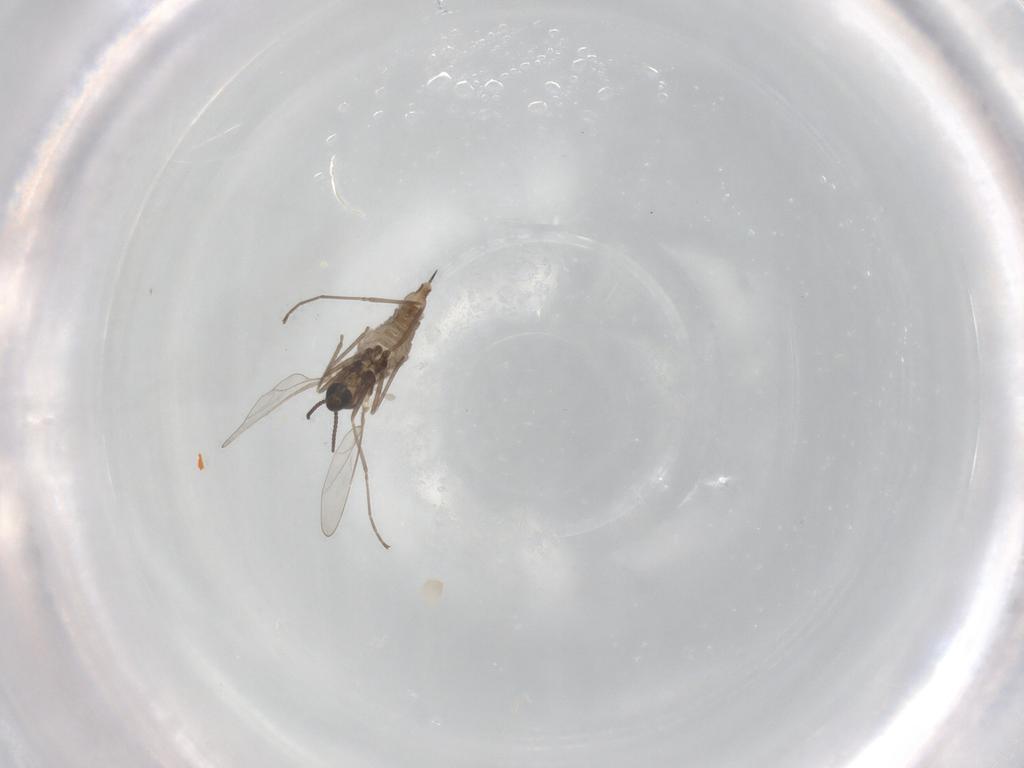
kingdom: Animalia
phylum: Arthropoda
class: Insecta
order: Diptera
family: Cecidomyiidae
